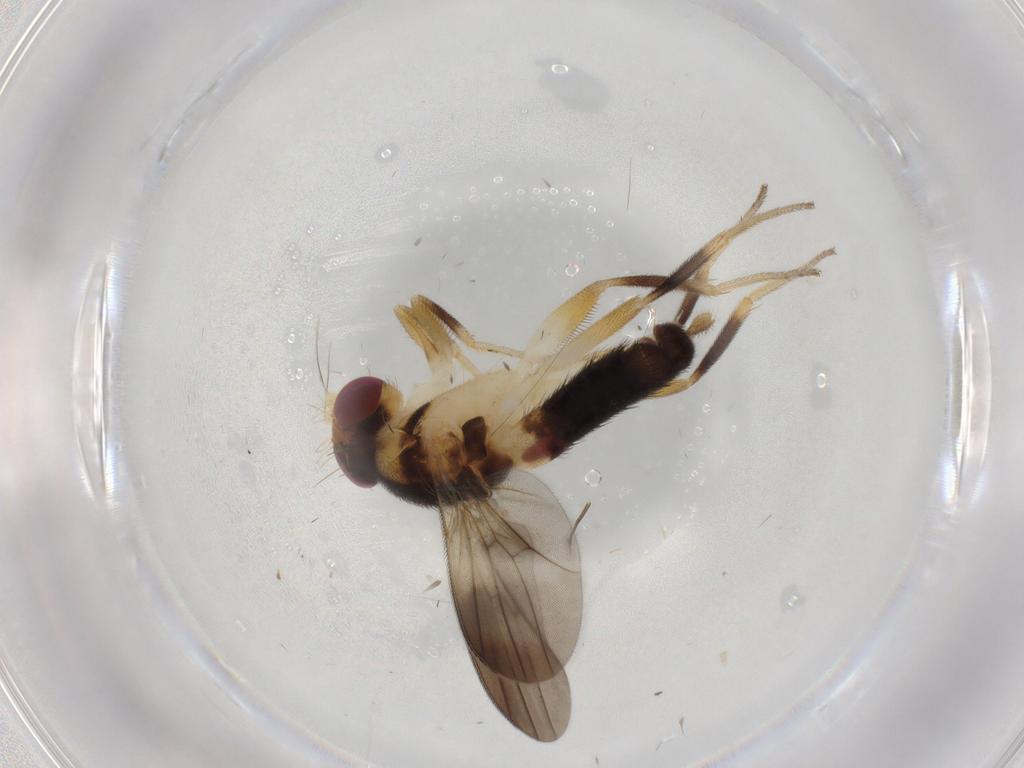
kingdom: Animalia
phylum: Arthropoda
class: Insecta
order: Diptera
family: Clusiidae
